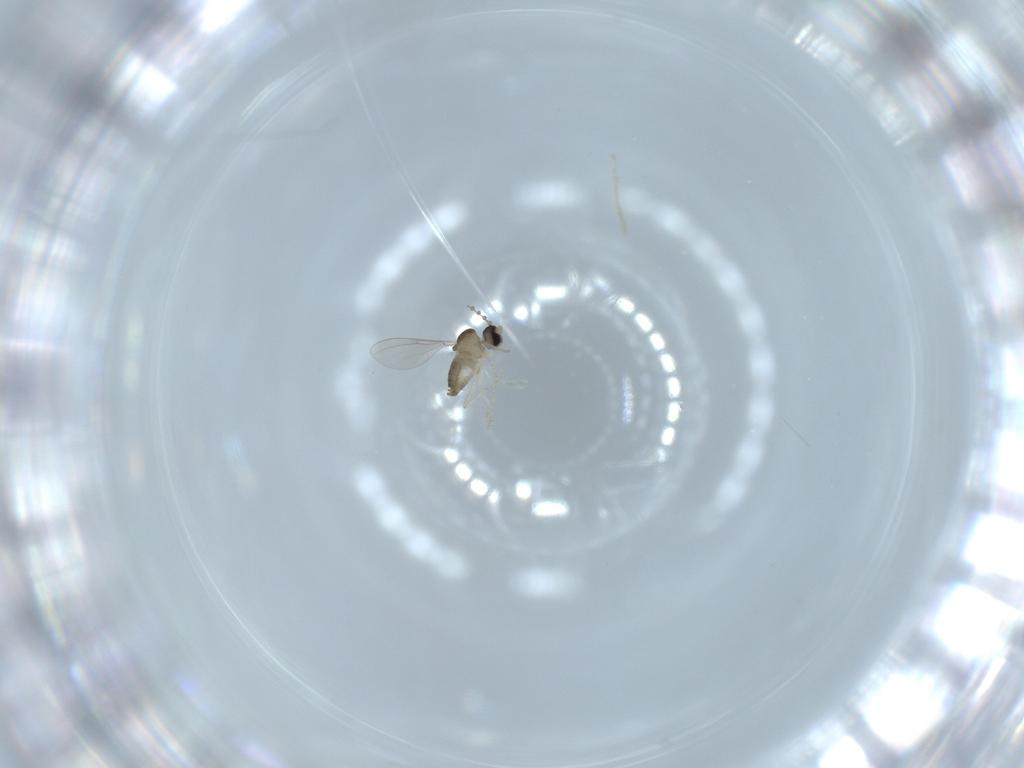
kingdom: Animalia
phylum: Arthropoda
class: Insecta
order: Diptera
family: Cecidomyiidae
